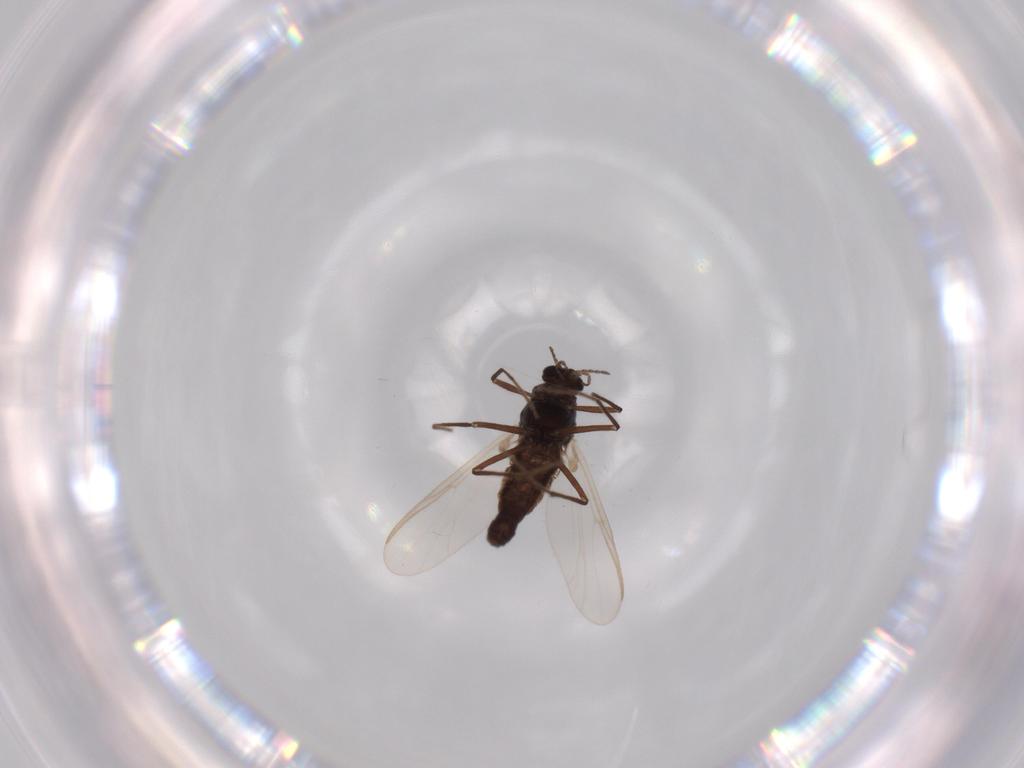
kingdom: Animalia
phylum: Arthropoda
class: Insecta
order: Diptera
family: Chironomidae
